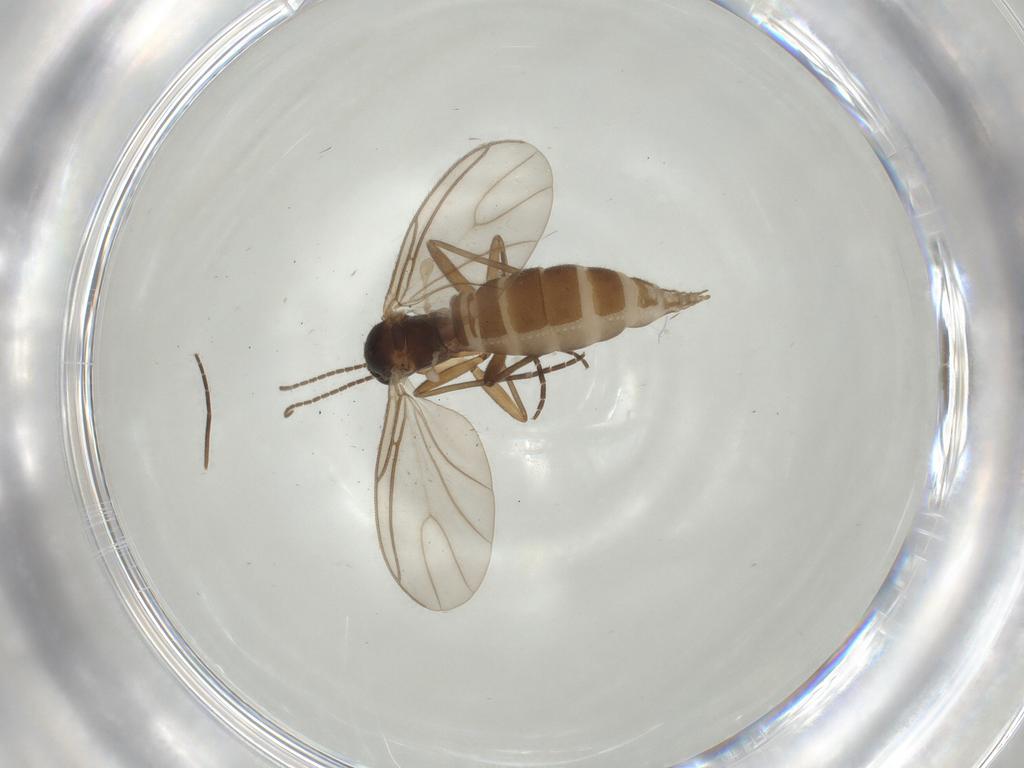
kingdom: Animalia
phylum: Arthropoda
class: Insecta
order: Diptera
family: Sciaridae
